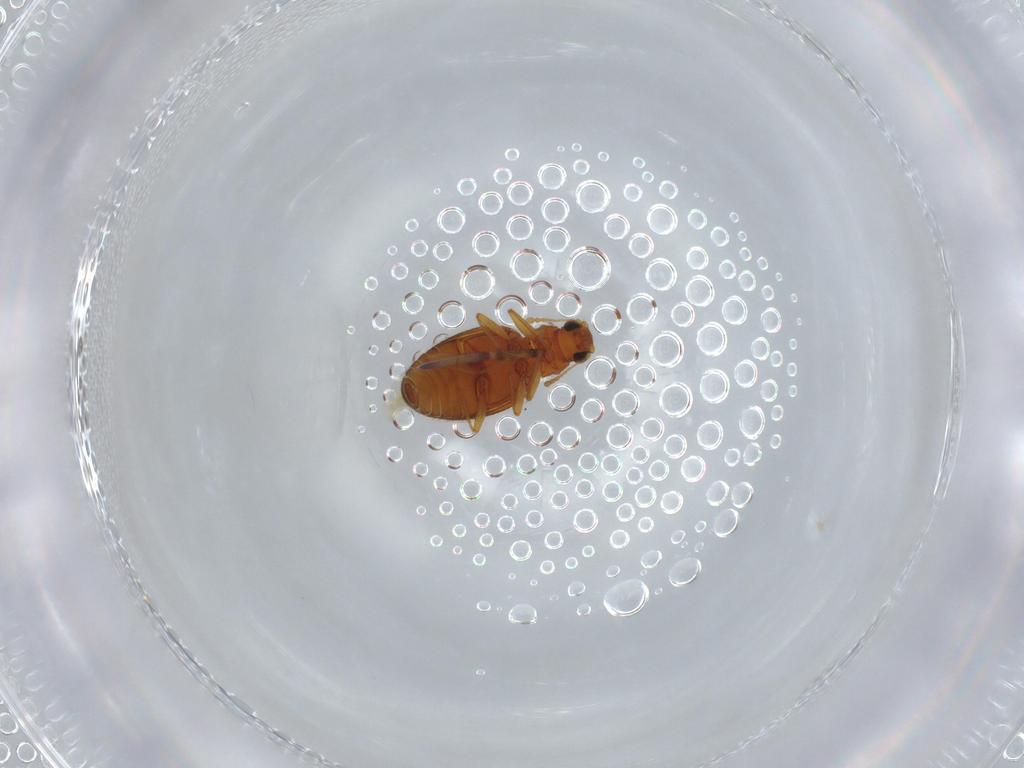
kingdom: Animalia
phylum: Arthropoda
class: Insecta
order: Coleoptera
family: Latridiidae
